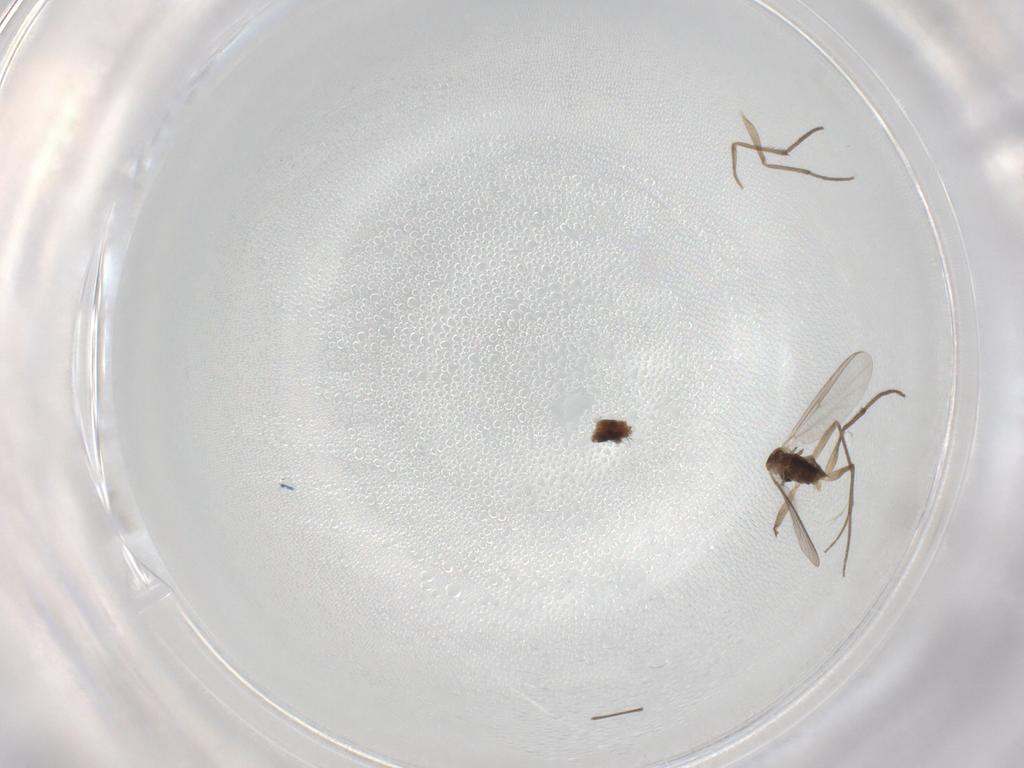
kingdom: Animalia
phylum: Arthropoda
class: Insecta
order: Diptera
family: Chironomidae
